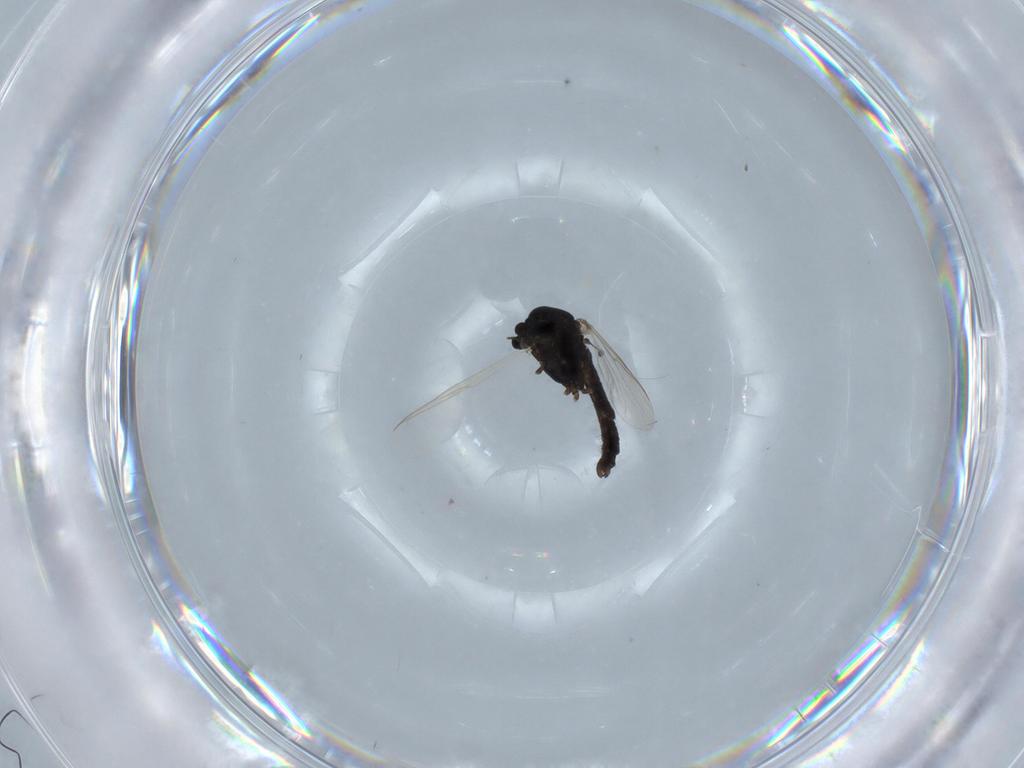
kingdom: Animalia
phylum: Arthropoda
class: Insecta
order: Diptera
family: Chironomidae
